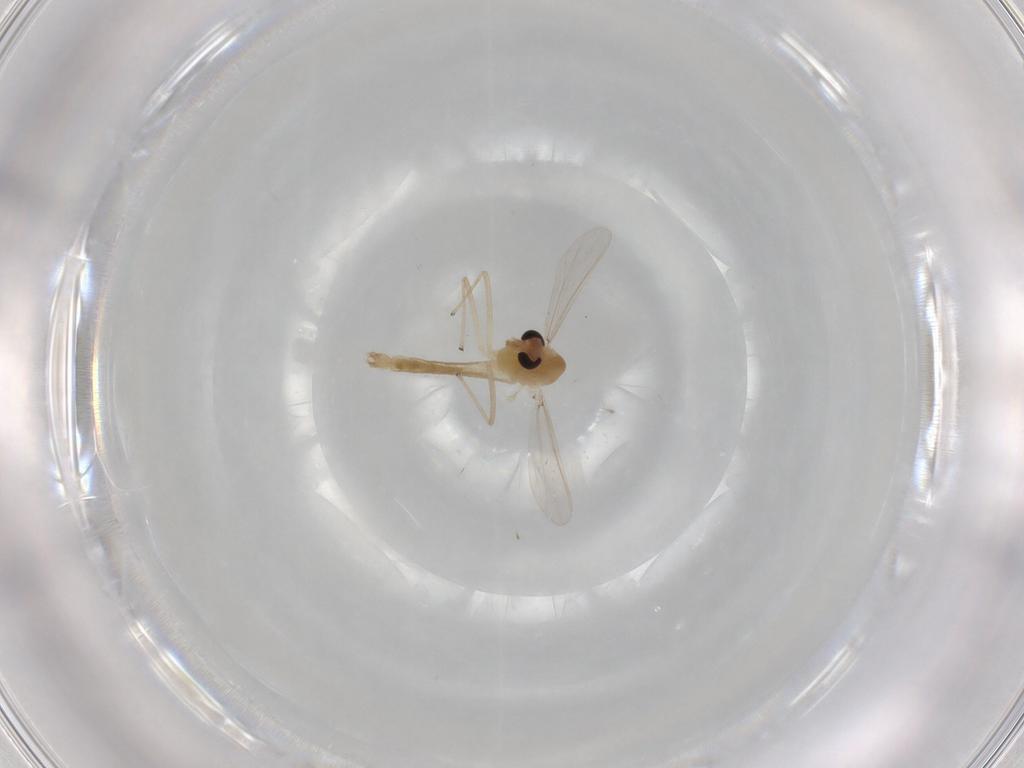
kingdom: Animalia
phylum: Arthropoda
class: Insecta
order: Diptera
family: Chironomidae
